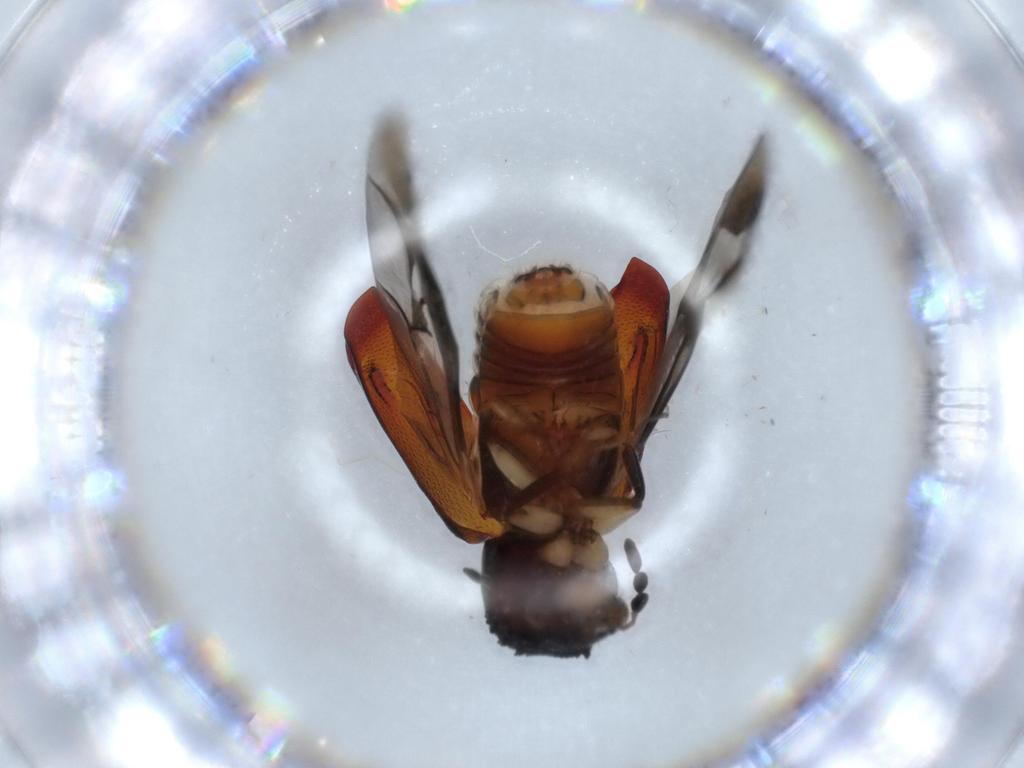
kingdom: Animalia
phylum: Arthropoda
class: Insecta
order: Coleoptera
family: Bostrichidae
